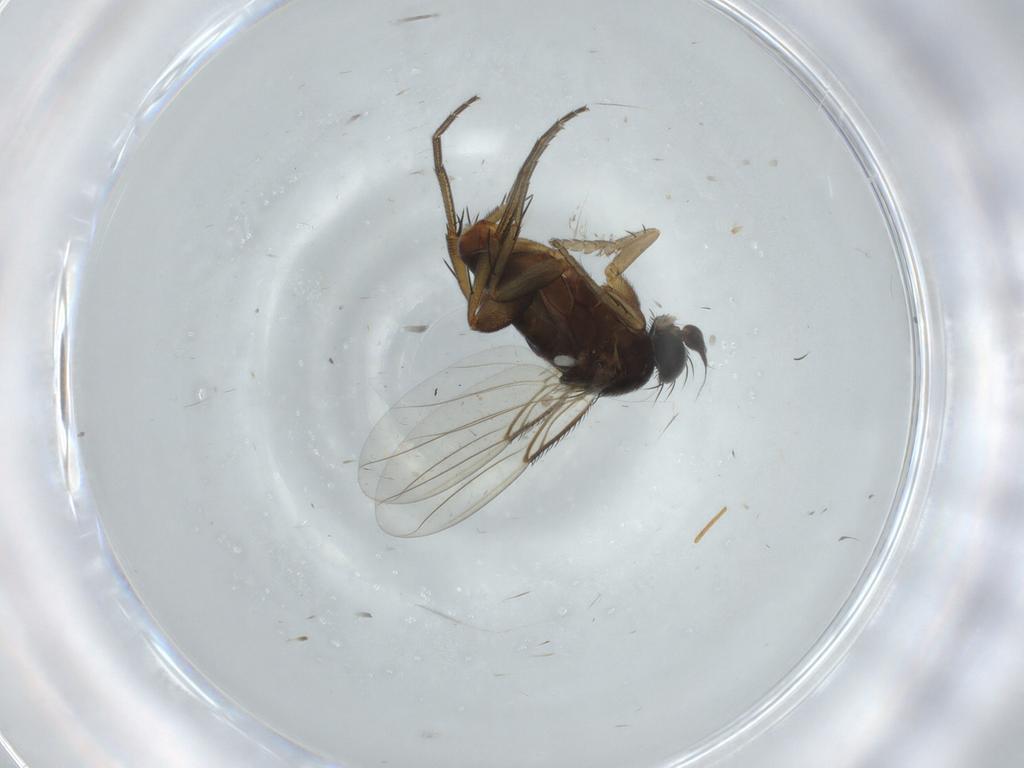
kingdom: Animalia
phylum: Arthropoda
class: Insecta
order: Diptera
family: Phoridae
